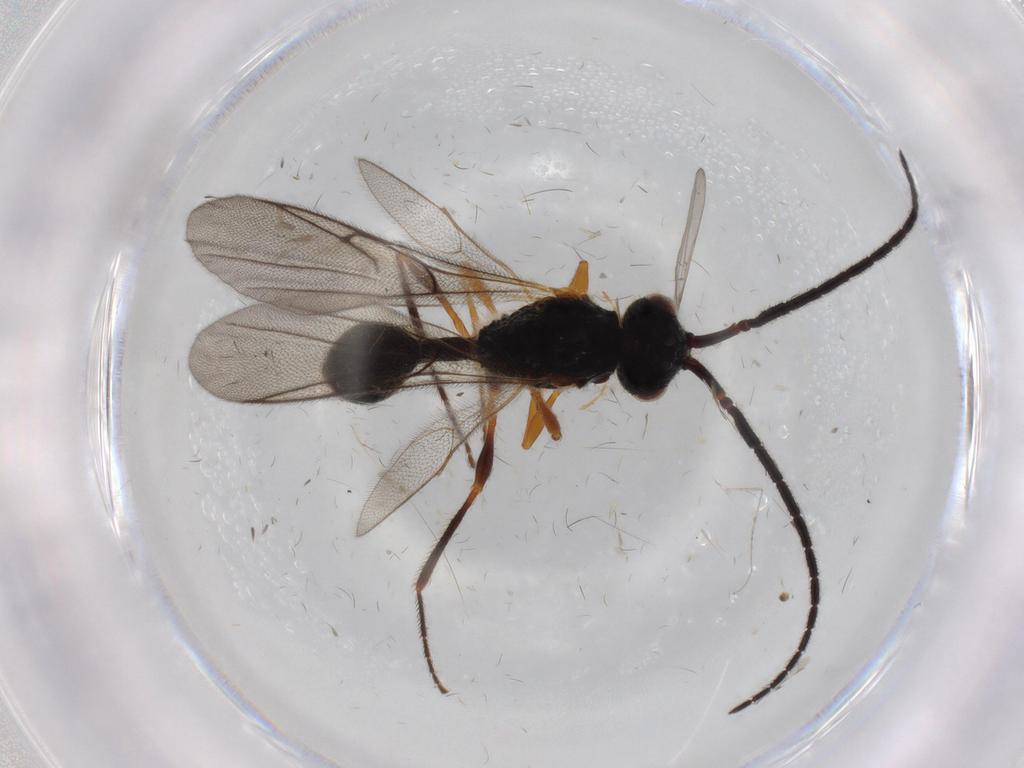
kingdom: Animalia
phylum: Arthropoda
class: Insecta
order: Hymenoptera
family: Diapriidae
